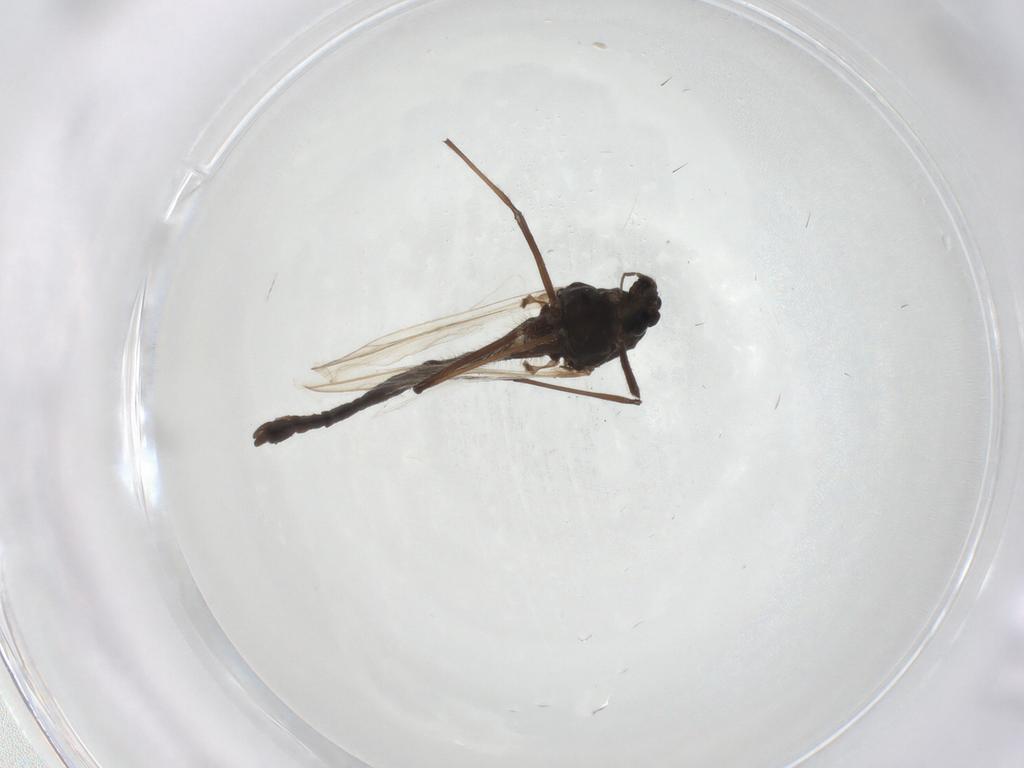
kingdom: Animalia
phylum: Arthropoda
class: Insecta
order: Diptera
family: Chironomidae
